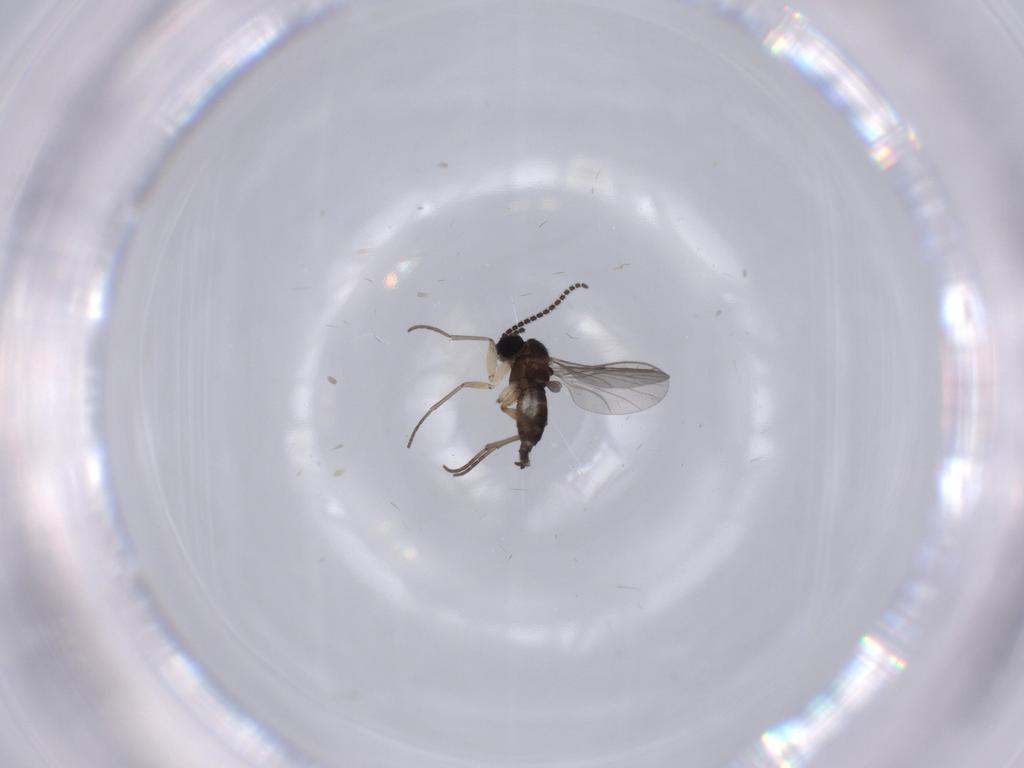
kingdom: Animalia
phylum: Arthropoda
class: Insecta
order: Diptera
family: Sciaridae
